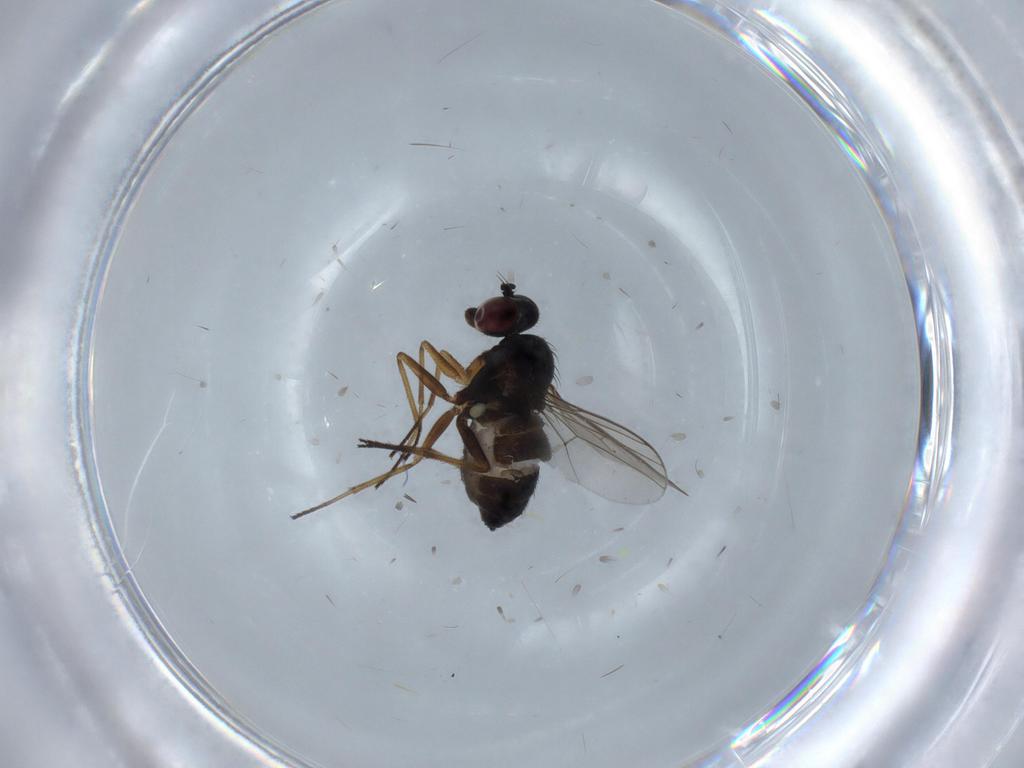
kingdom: Animalia
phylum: Arthropoda
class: Insecta
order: Diptera
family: Dolichopodidae
